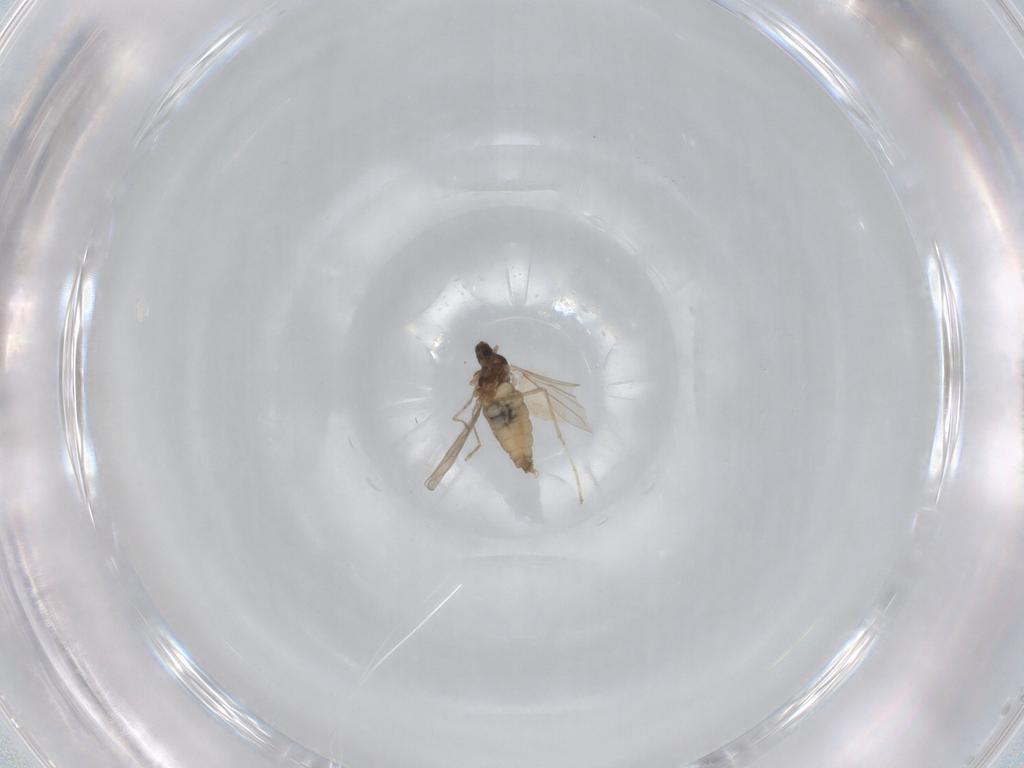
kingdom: Animalia
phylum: Arthropoda
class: Insecta
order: Diptera
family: Cecidomyiidae
